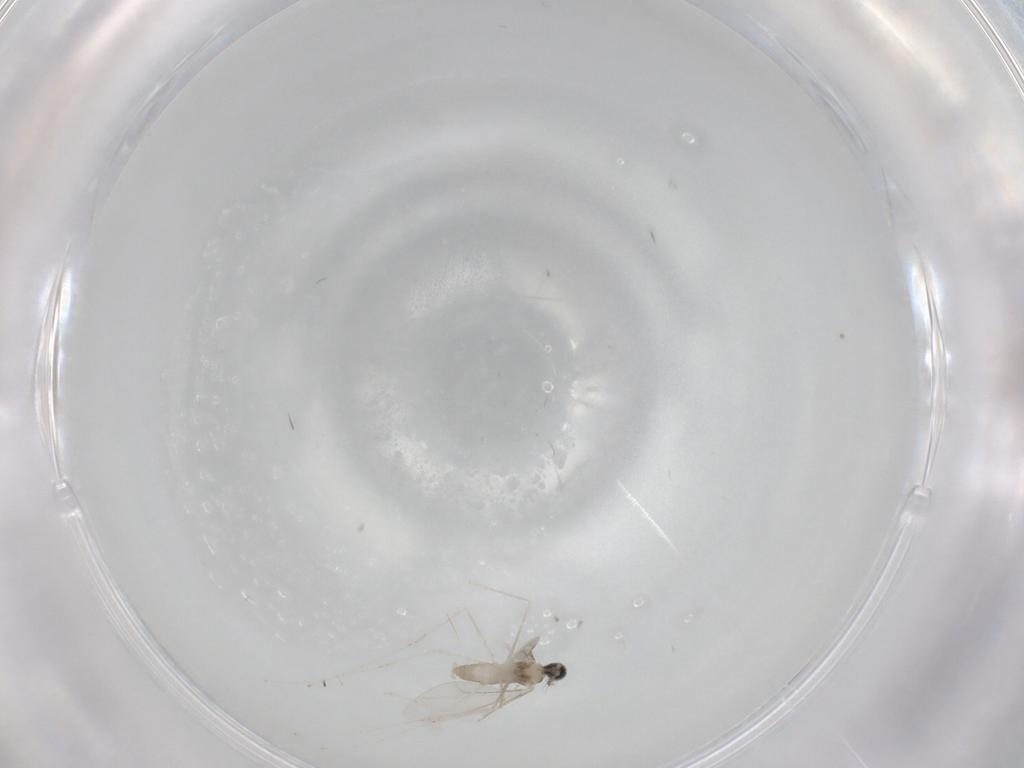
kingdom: Animalia
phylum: Arthropoda
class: Insecta
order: Diptera
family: Cecidomyiidae
